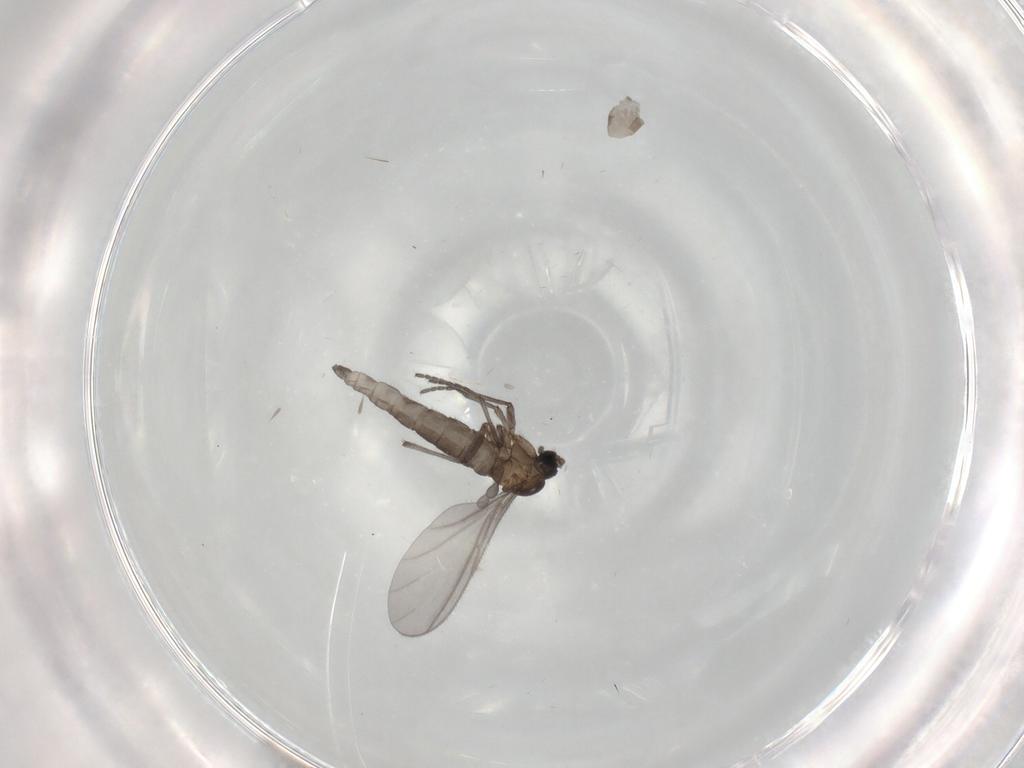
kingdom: Animalia
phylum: Arthropoda
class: Insecta
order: Diptera
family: Sciaridae
